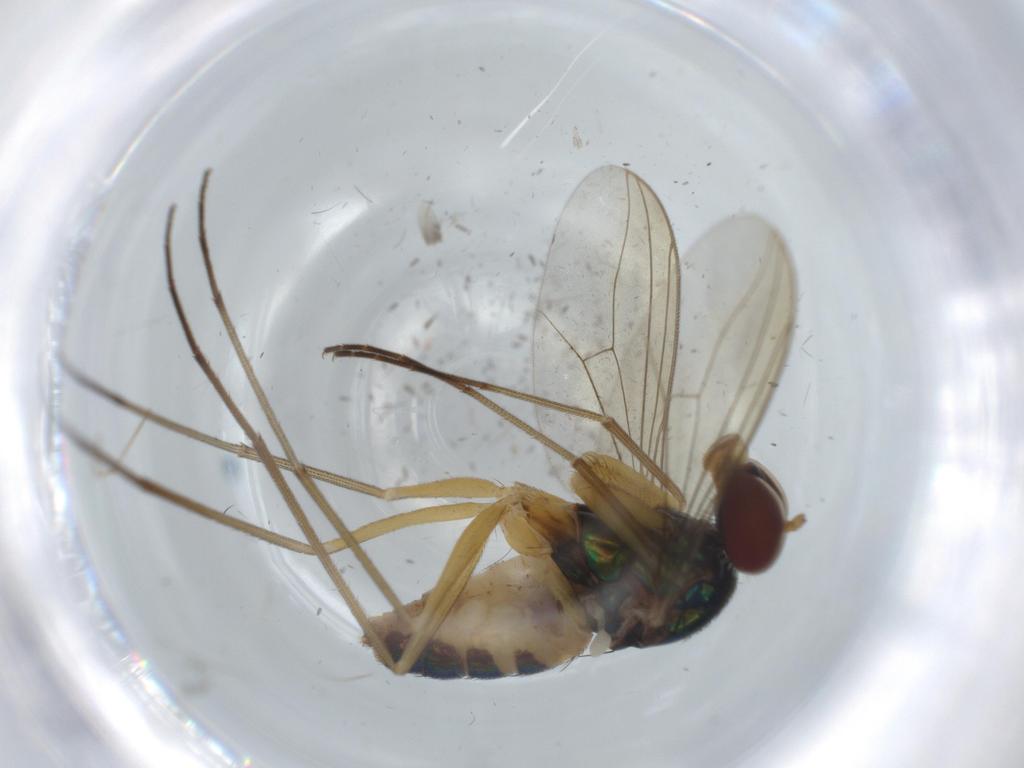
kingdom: Animalia
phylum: Arthropoda
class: Insecta
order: Diptera
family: Dolichopodidae
